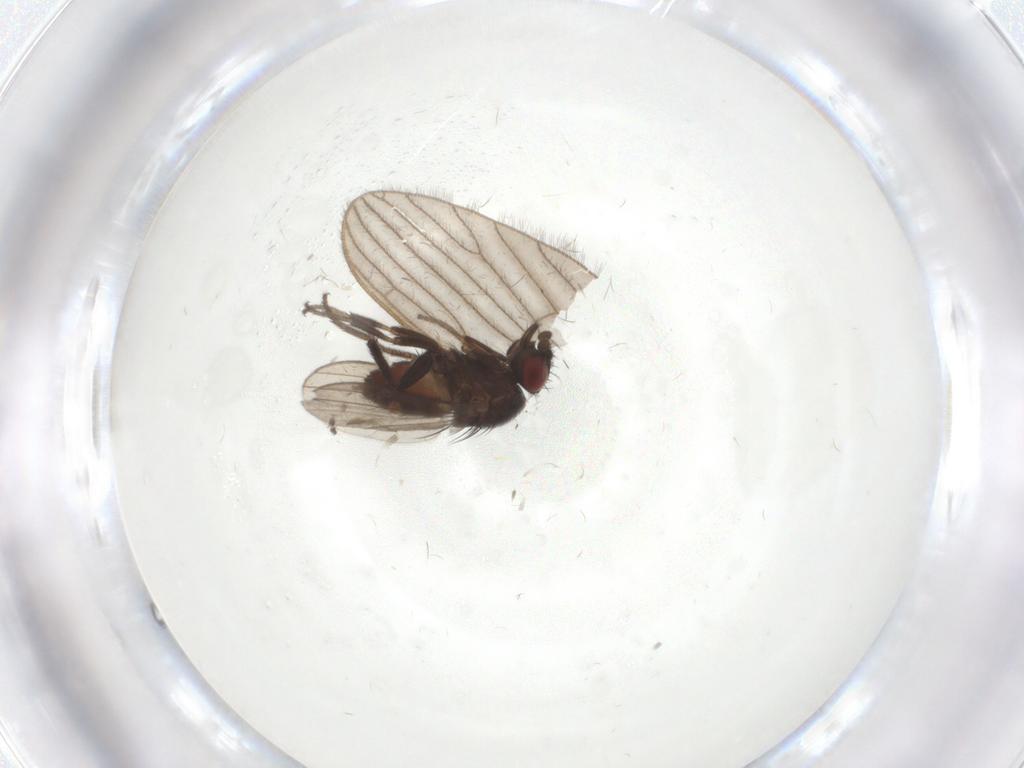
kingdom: Animalia
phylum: Arthropoda
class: Insecta
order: Diptera
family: Milichiidae
